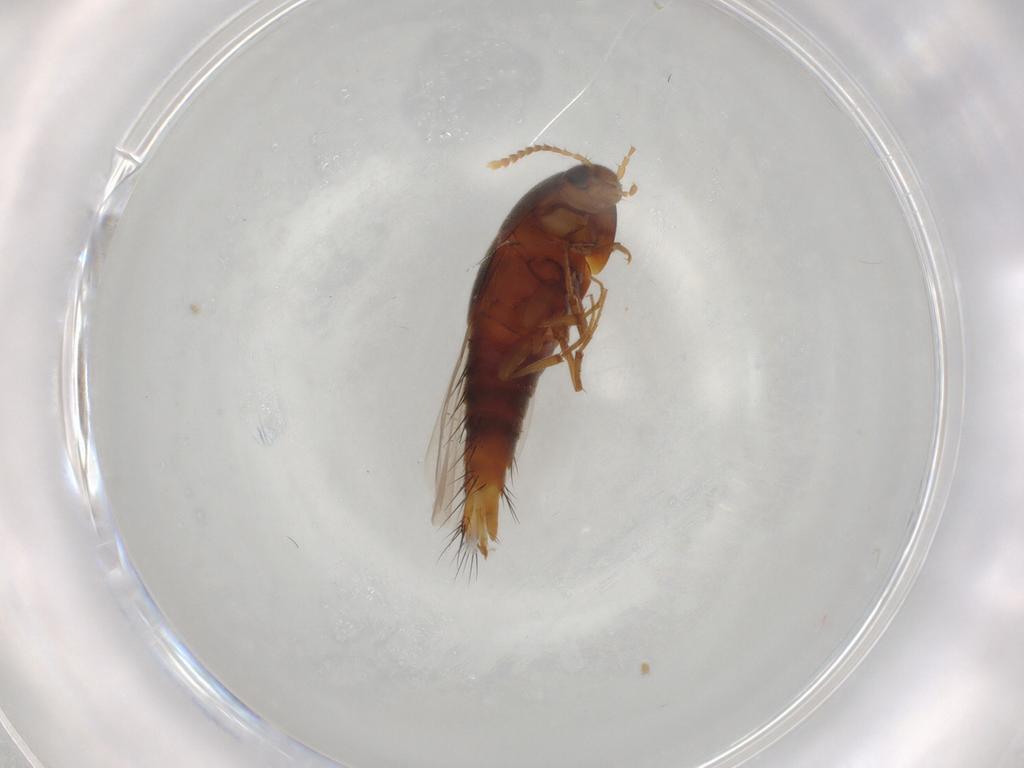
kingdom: Animalia
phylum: Arthropoda
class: Insecta
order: Coleoptera
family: Staphylinidae
